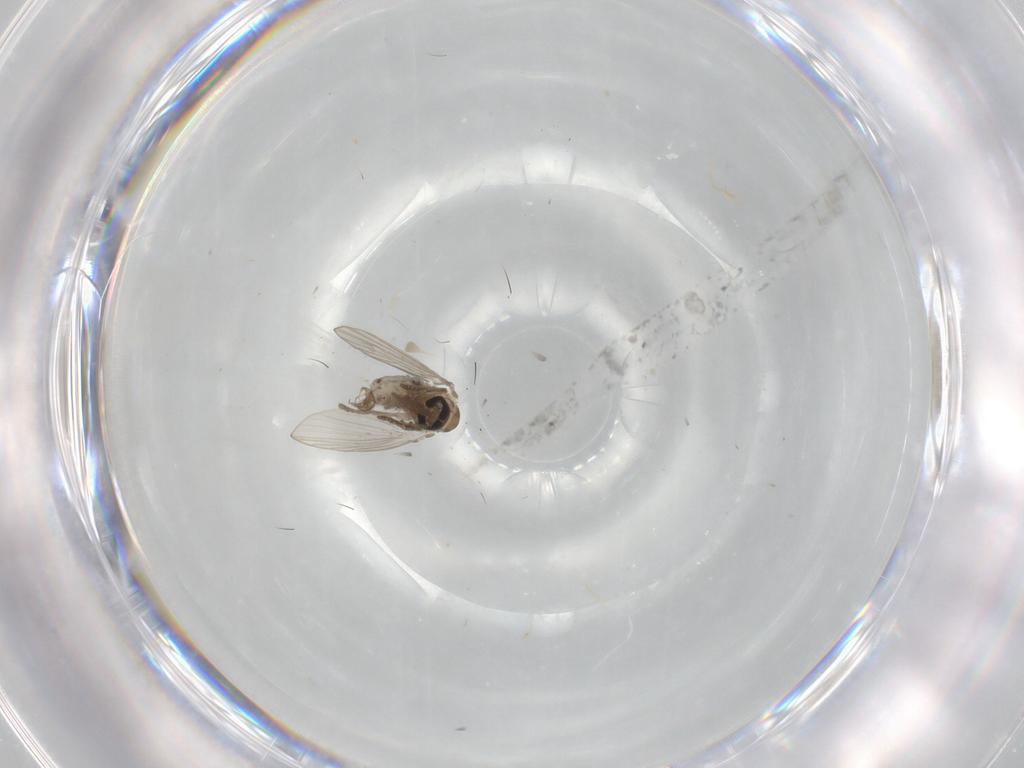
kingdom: Animalia
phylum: Arthropoda
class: Insecta
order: Diptera
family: Psychodidae
